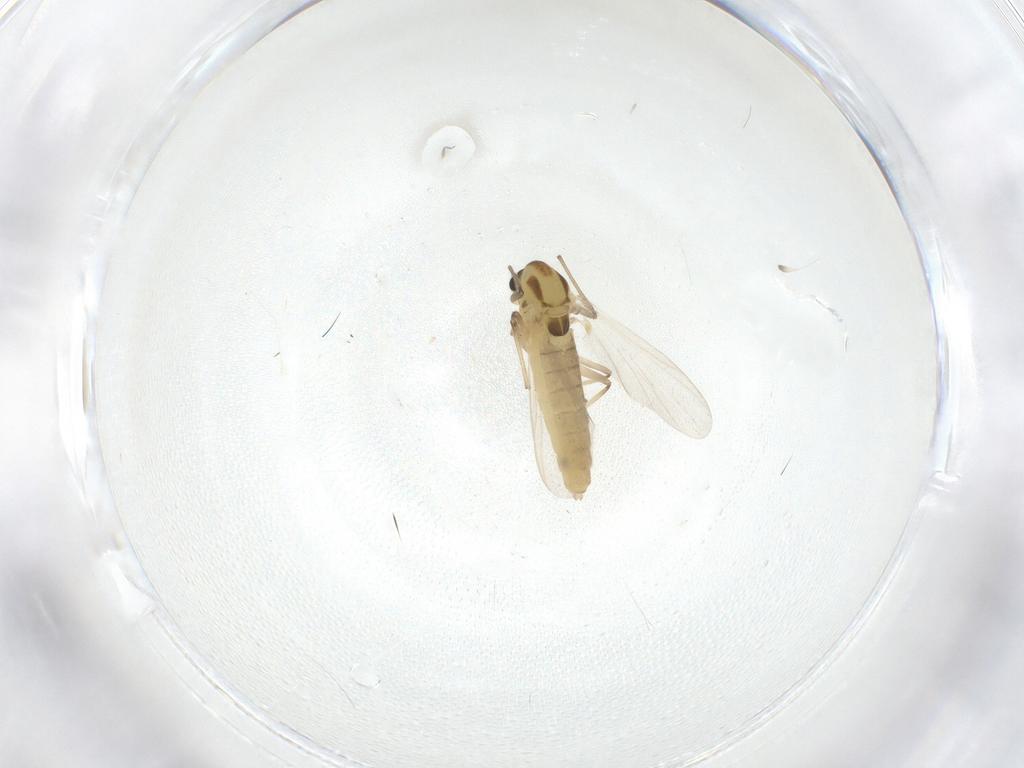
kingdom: Animalia
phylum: Arthropoda
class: Insecta
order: Diptera
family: Chironomidae
